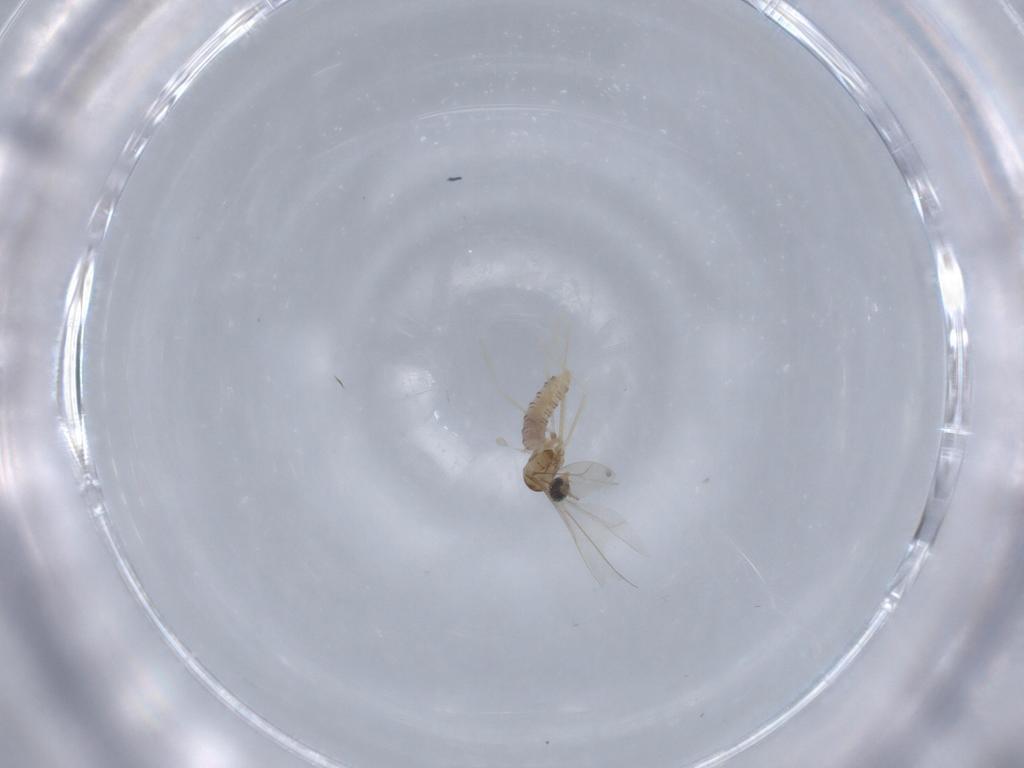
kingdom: Animalia
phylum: Arthropoda
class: Insecta
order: Diptera
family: Cecidomyiidae
